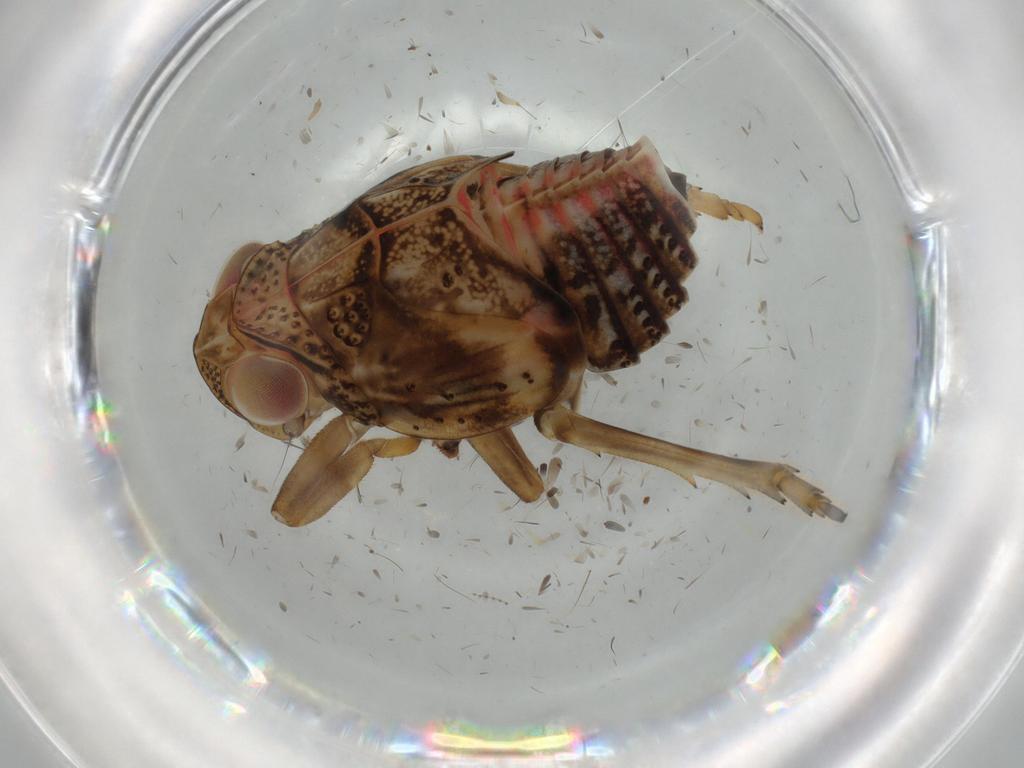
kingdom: Animalia
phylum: Arthropoda
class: Insecta
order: Hemiptera
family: Issidae
